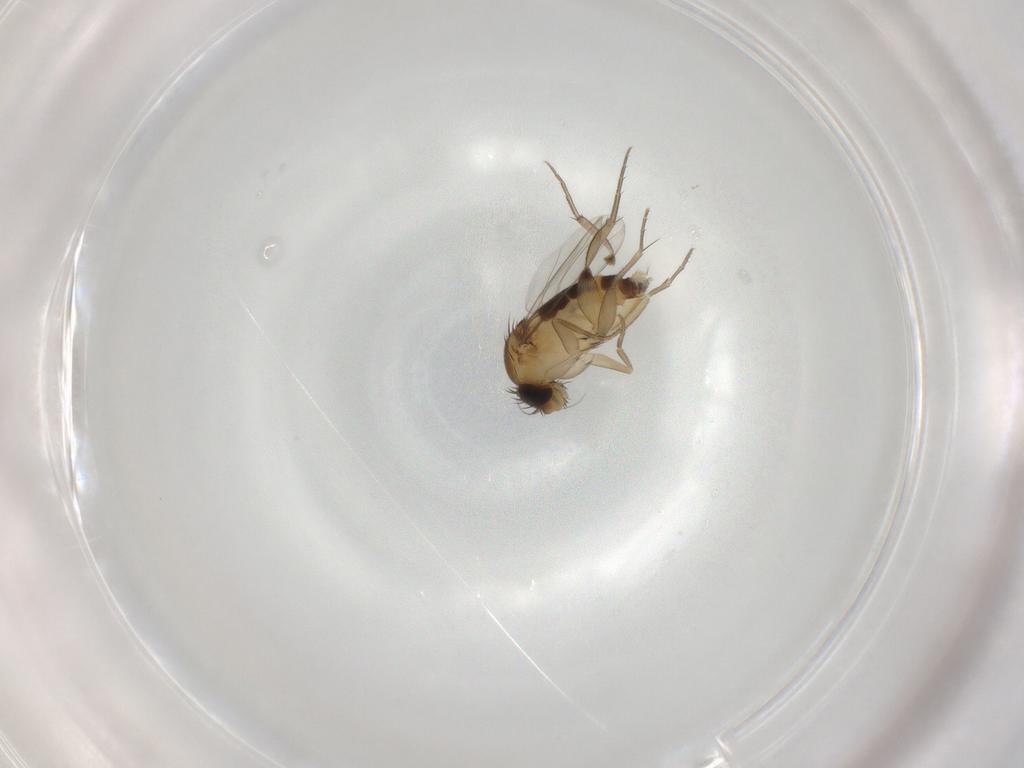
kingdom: Animalia
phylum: Arthropoda
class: Insecta
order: Diptera
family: Phoridae
